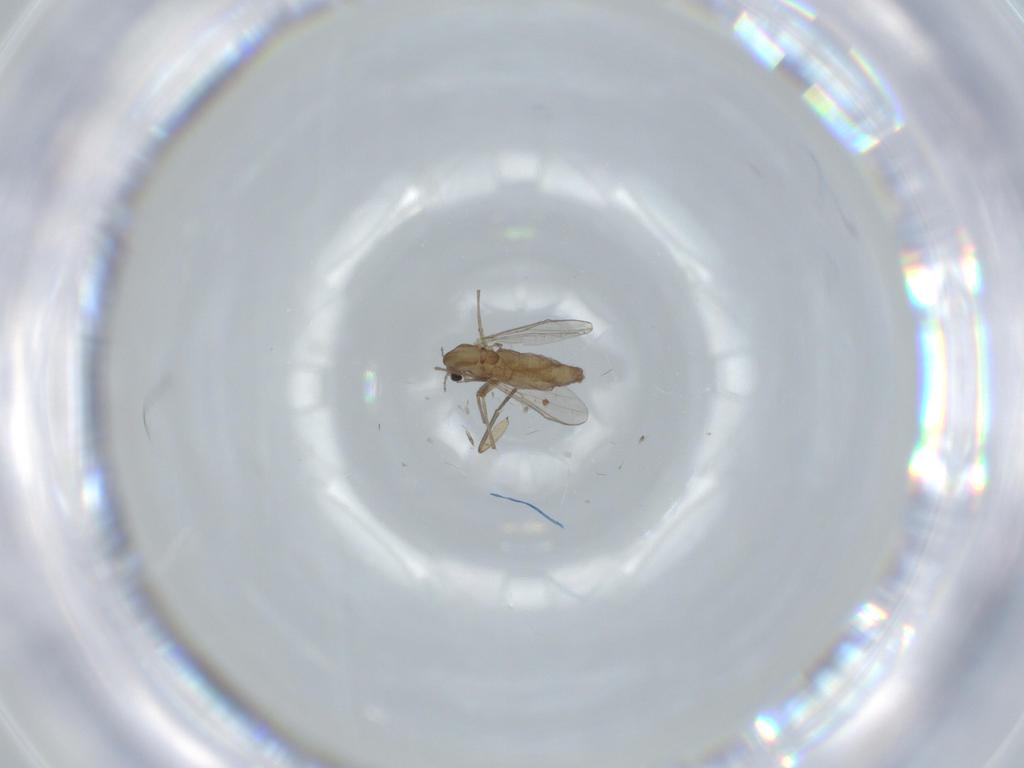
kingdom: Animalia
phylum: Arthropoda
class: Insecta
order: Diptera
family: Chironomidae
